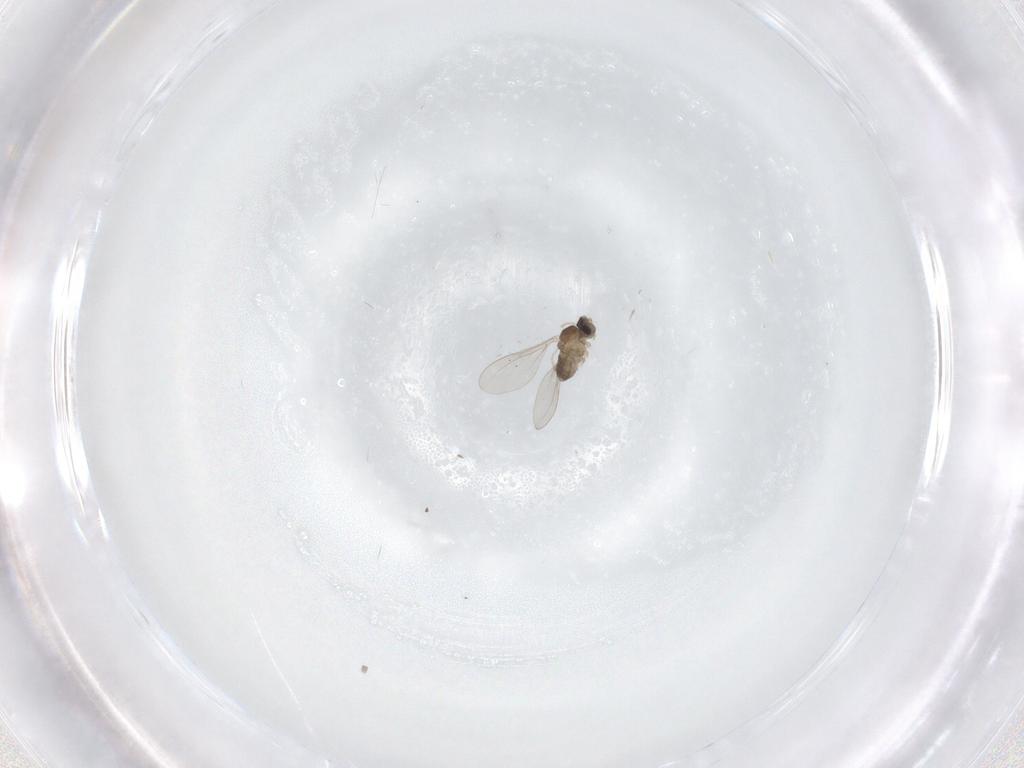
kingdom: Animalia
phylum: Arthropoda
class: Insecta
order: Diptera
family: Cecidomyiidae
